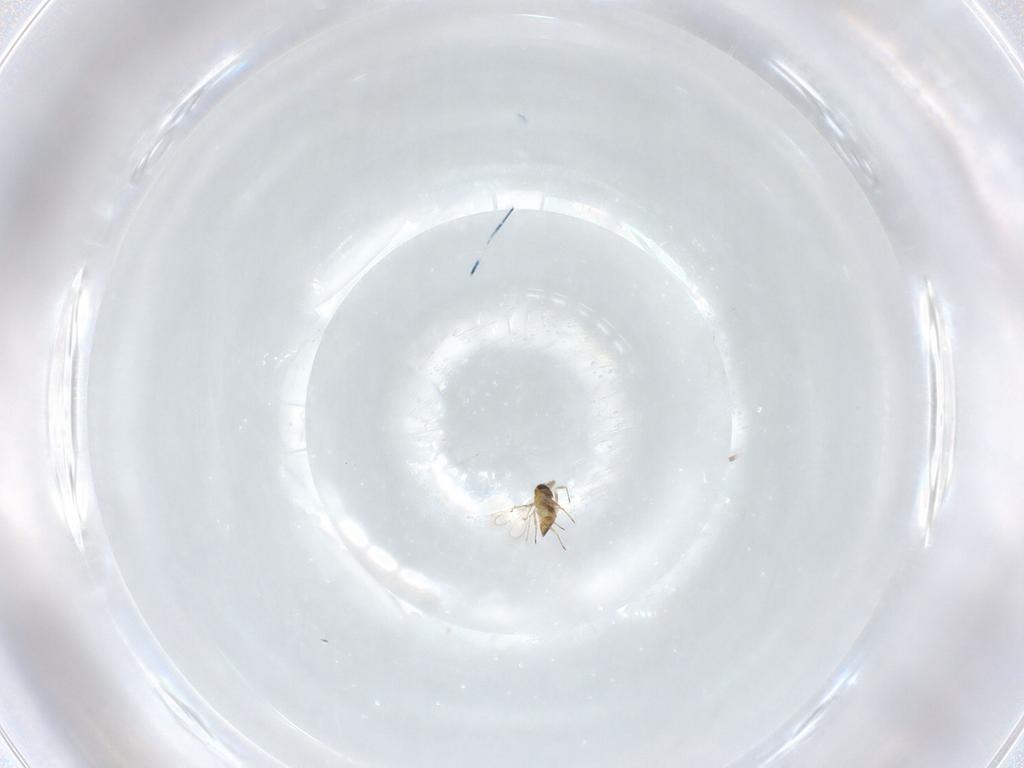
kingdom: Animalia
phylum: Arthropoda
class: Insecta
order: Hymenoptera
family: Trichogrammatidae
